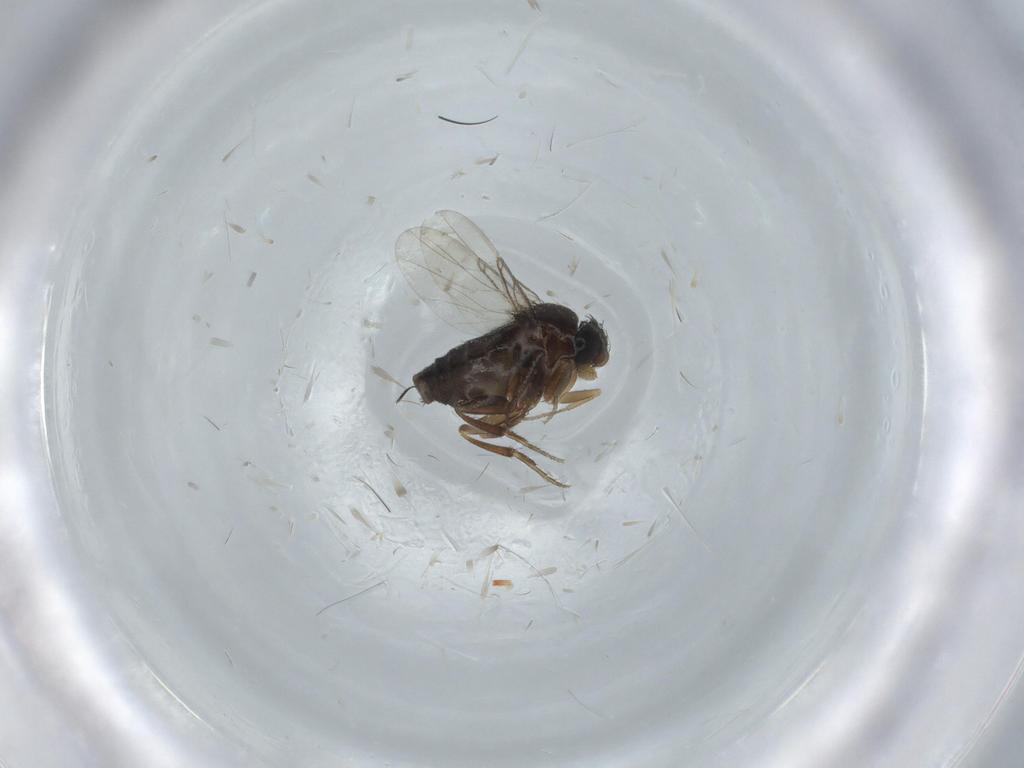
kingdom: Animalia
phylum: Arthropoda
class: Insecta
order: Diptera
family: Phoridae
